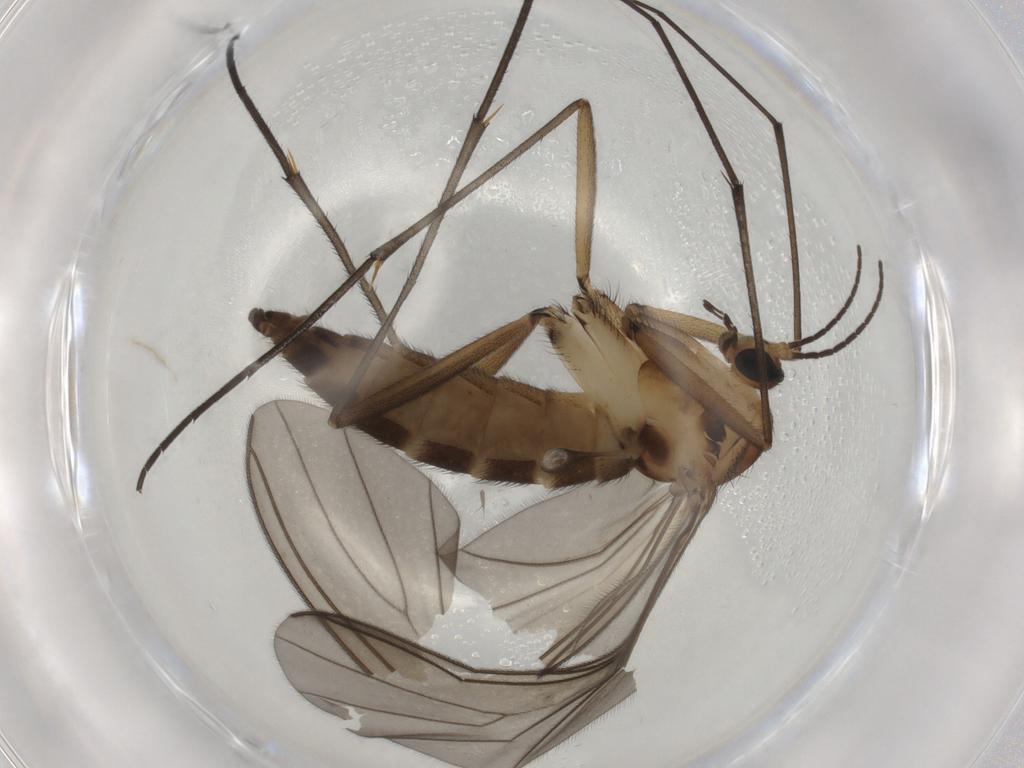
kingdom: Animalia
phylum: Arthropoda
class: Insecta
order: Diptera
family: Sciaridae
